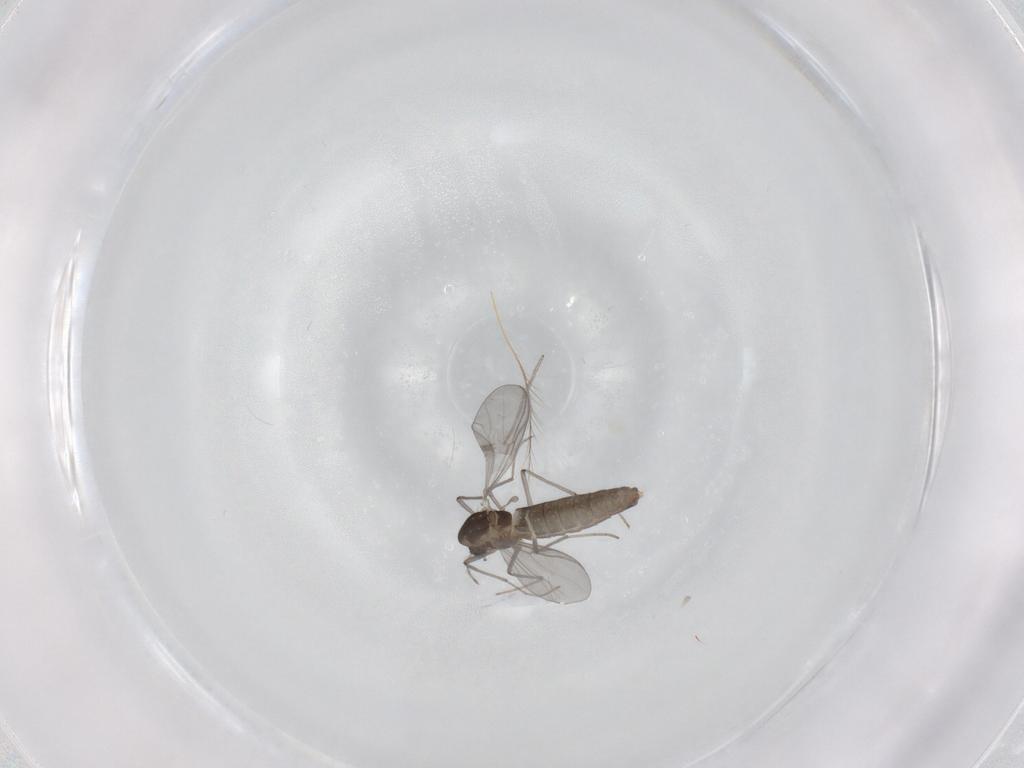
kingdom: Animalia
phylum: Arthropoda
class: Insecta
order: Diptera
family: Chironomidae
